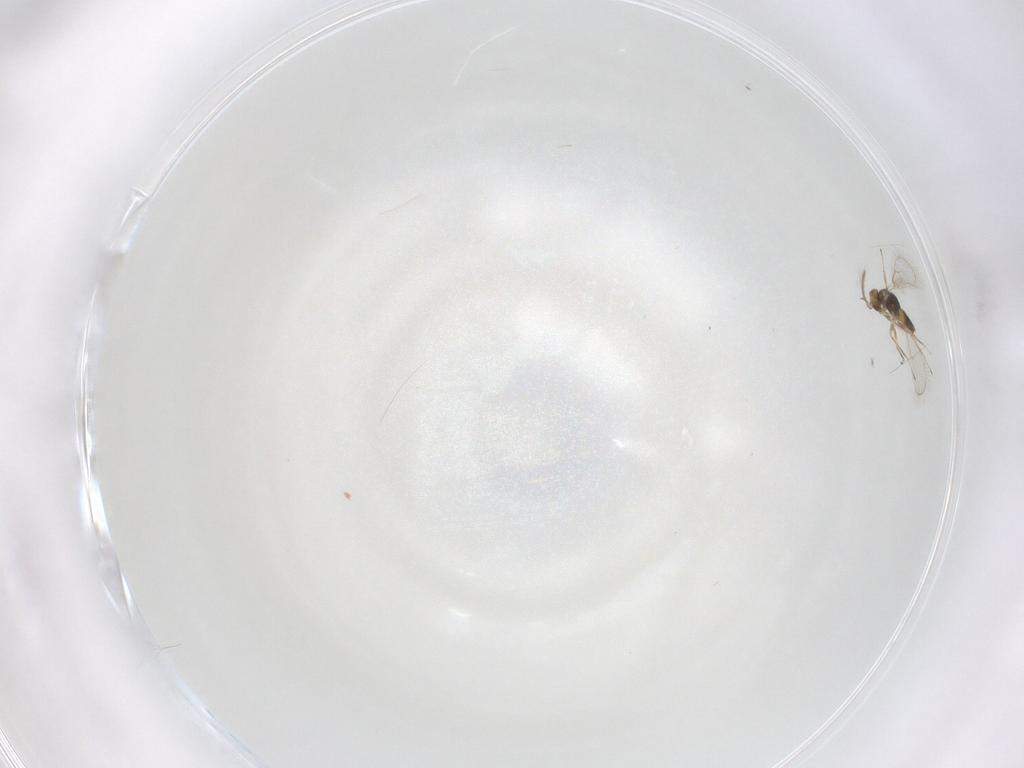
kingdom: Animalia
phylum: Arthropoda
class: Insecta
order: Hymenoptera
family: Eulophidae
